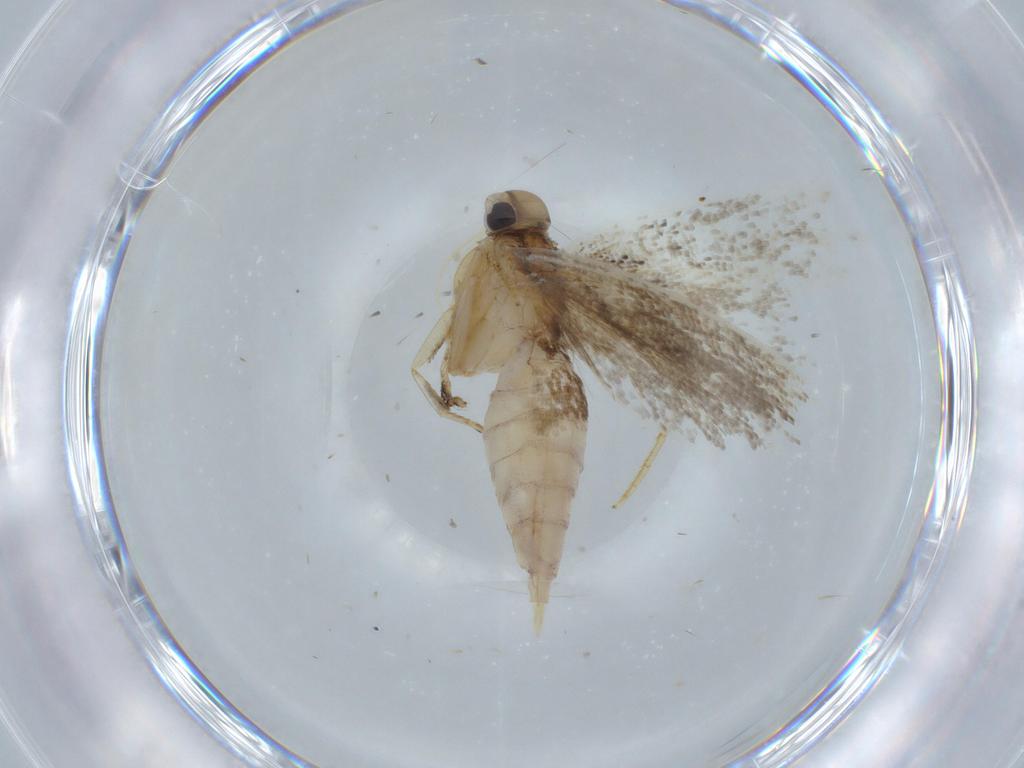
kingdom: Animalia
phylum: Arthropoda
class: Insecta
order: Lepidoptera
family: Gelechiidae
